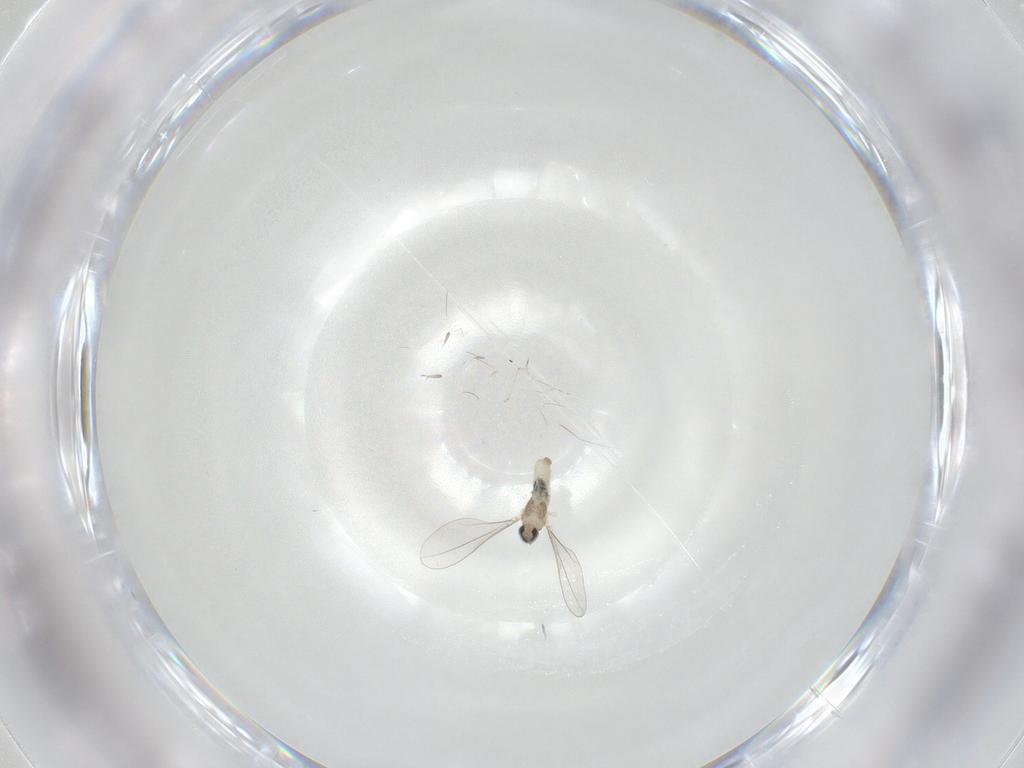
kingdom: Animalia
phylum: Arthropoda
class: Insecta
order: Diptera
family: Cecidomyiidae
